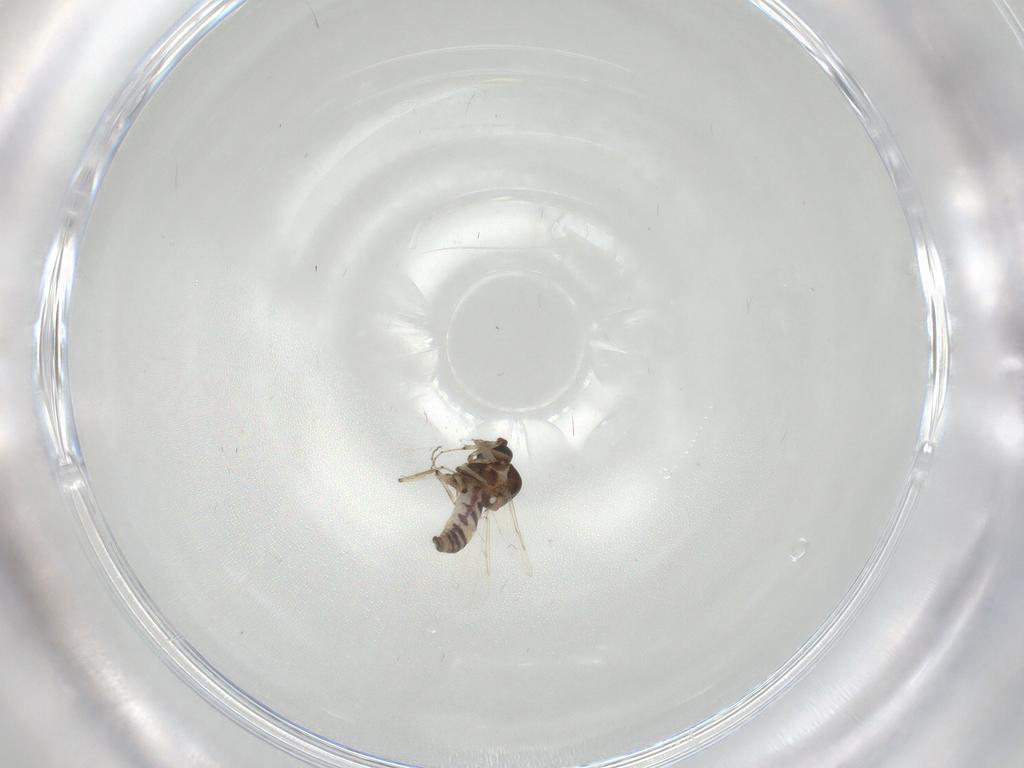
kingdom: Animalia
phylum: Arthropoda
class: Insecta
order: Diptera
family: Ceratopogonidae
